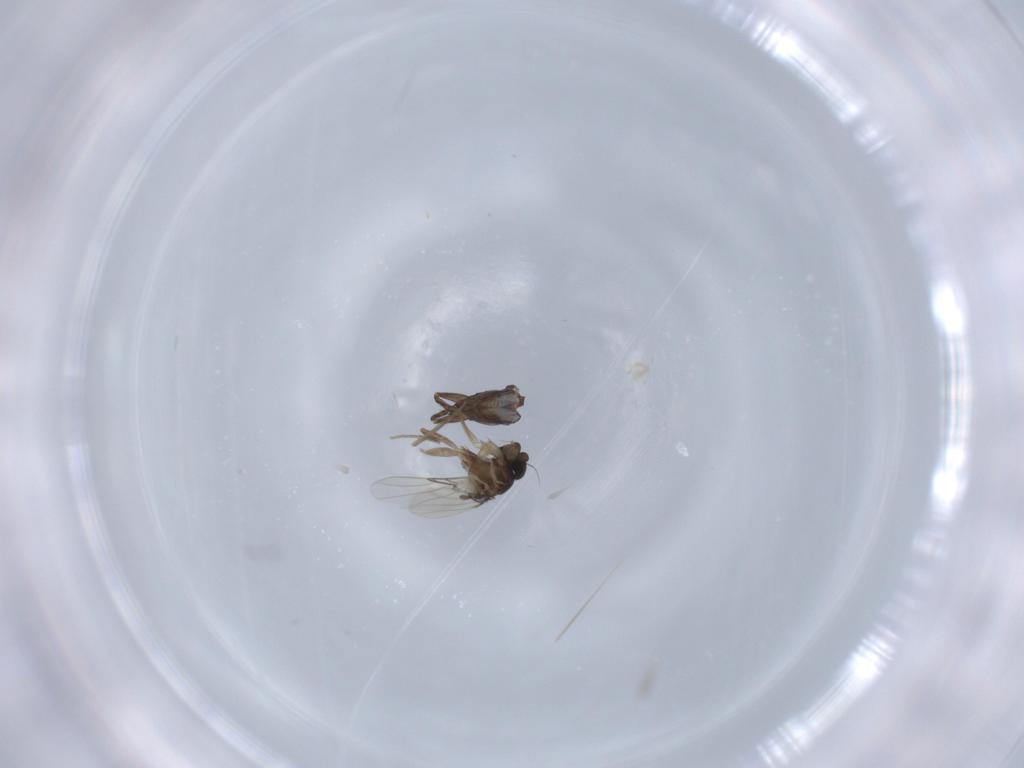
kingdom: Animalia
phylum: Arthropoda
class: Insecta
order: Diptera
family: Phoridae
